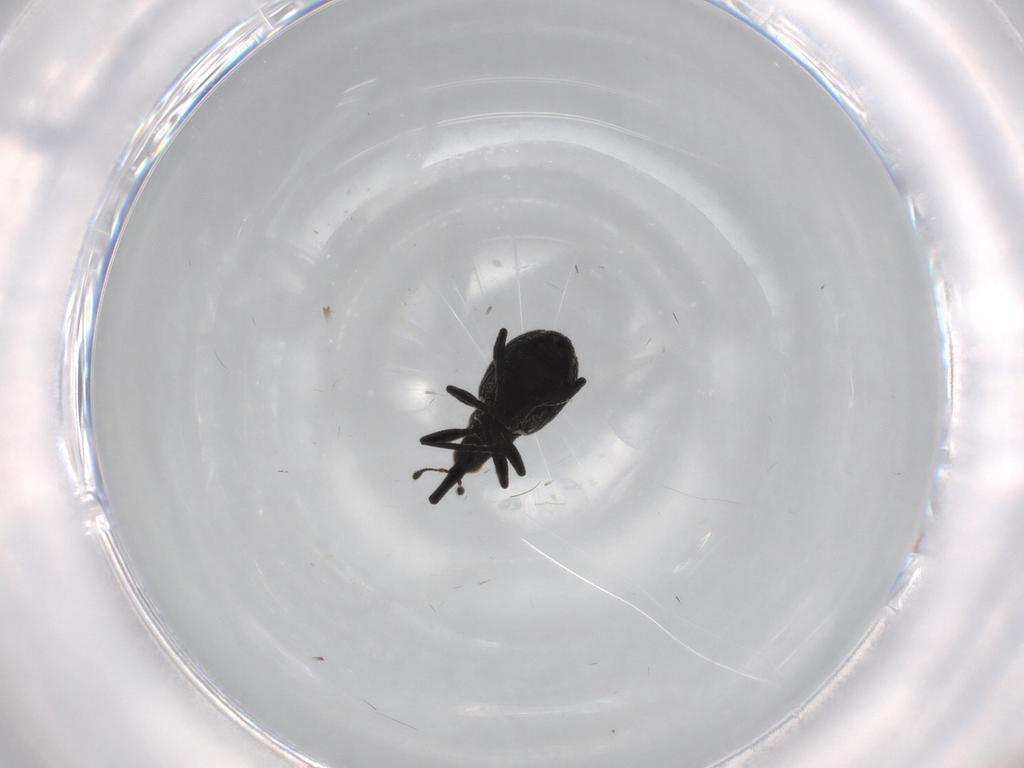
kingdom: Animalia
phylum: Arthropoda
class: Insecta
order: Coleoptera
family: Brentidae
